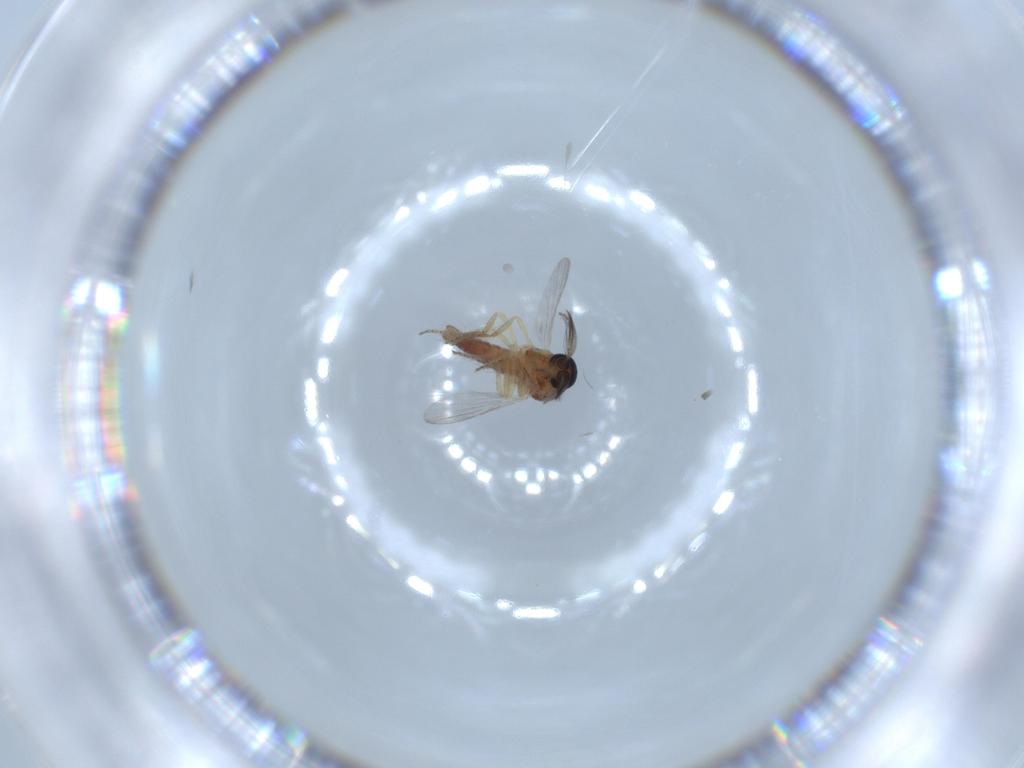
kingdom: Animalia
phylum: Arthropoda
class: Insecta
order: Diptera
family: Ceratopogonidae
